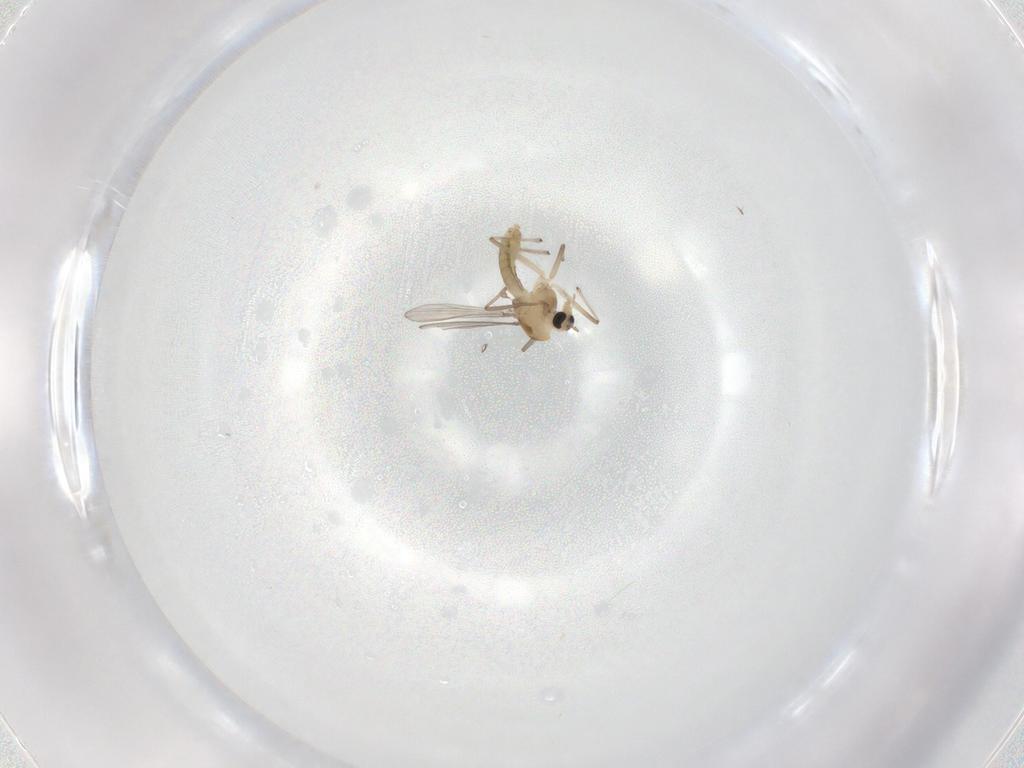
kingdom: Animalia
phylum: Arthropoda
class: Insecta
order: Diptera
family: Chironomidae
